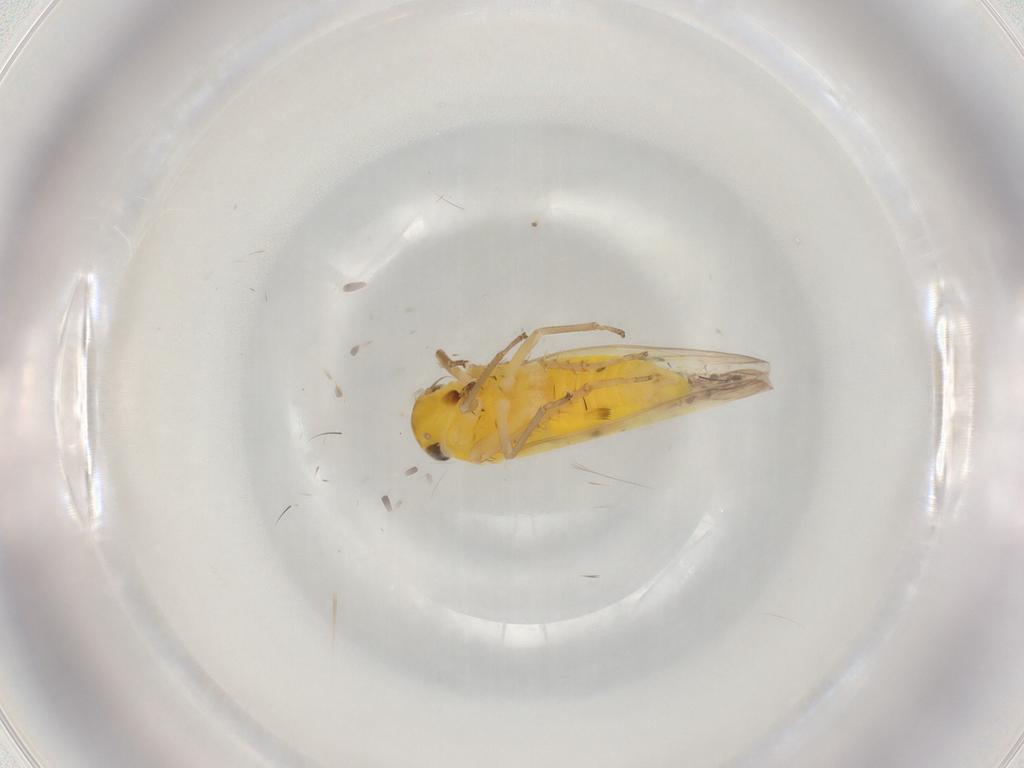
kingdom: Animalia
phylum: Arthropoda
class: Insecta
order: Hemiptera
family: Cicadellidae
